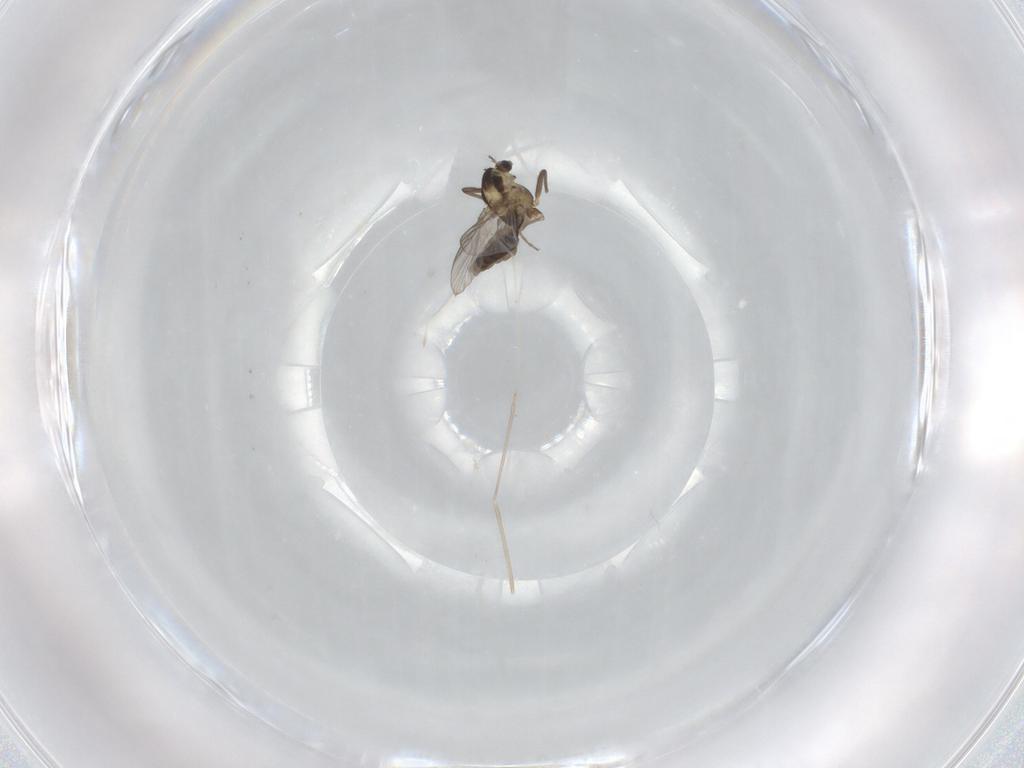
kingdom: Animalia
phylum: Arthropoda
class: Insecta
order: Diptera
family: Cecidomyiidae
